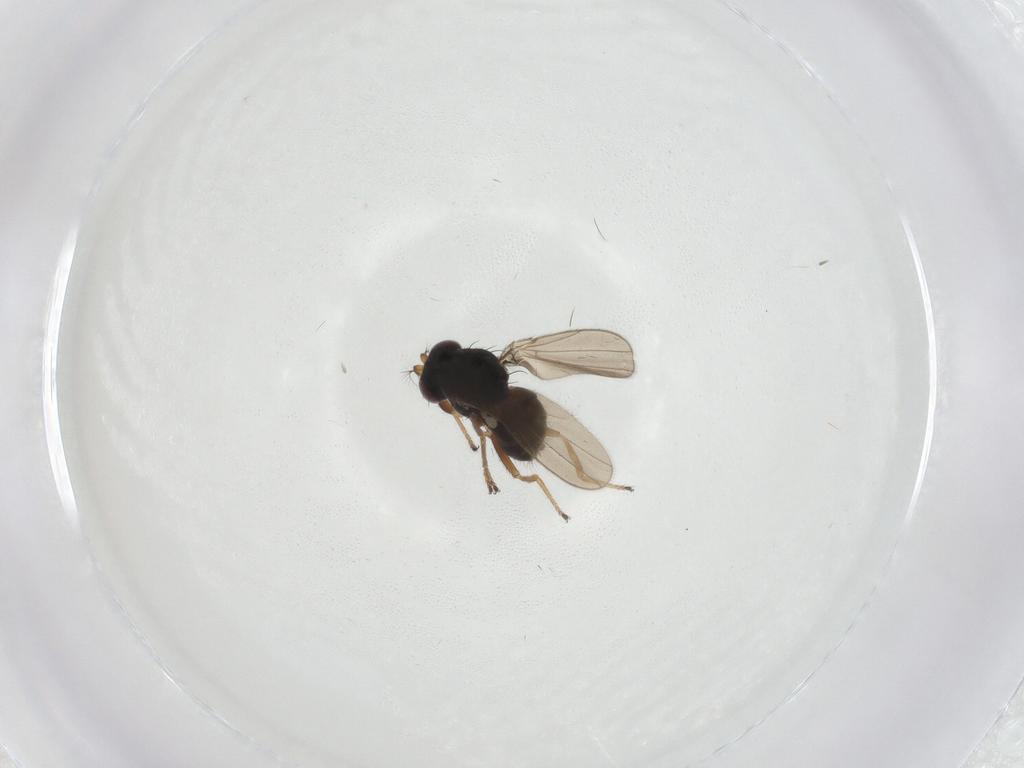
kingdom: Animalia
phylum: Arthropoda
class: Insecta
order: Diptera
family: Ephydridae
